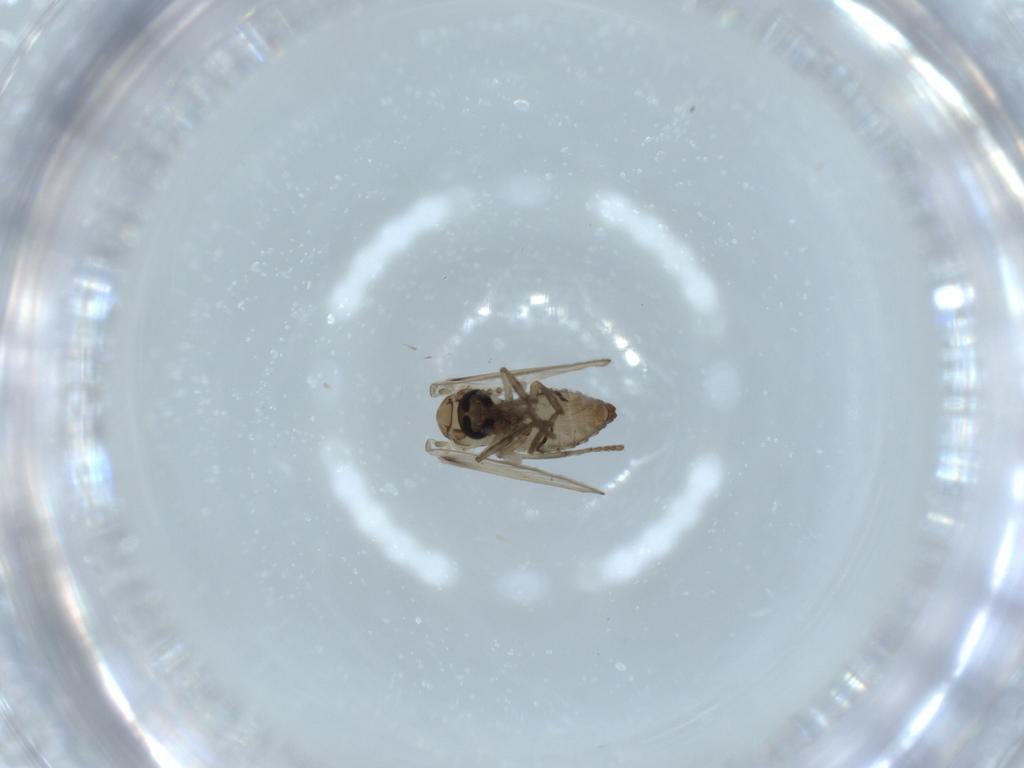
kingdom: Animalia
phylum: Arthropoda
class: Insecta
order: Diptera
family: Psychodidae
